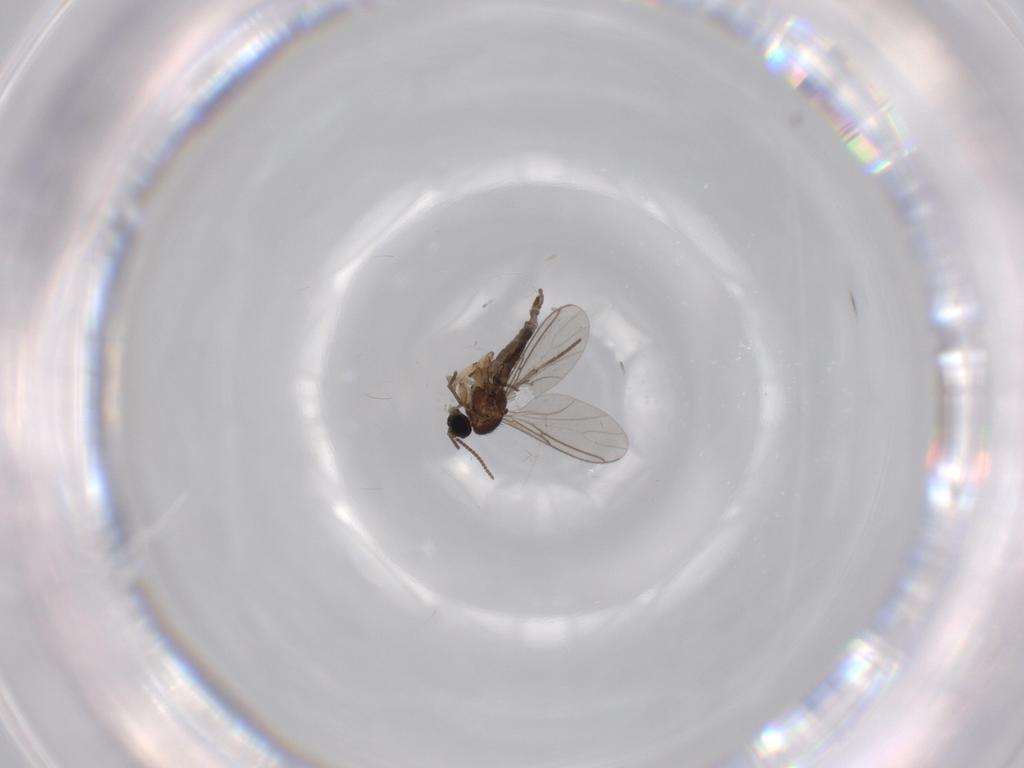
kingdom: Animalia
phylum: Arthropoda
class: Insecta
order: Diptera
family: Sciaridae
